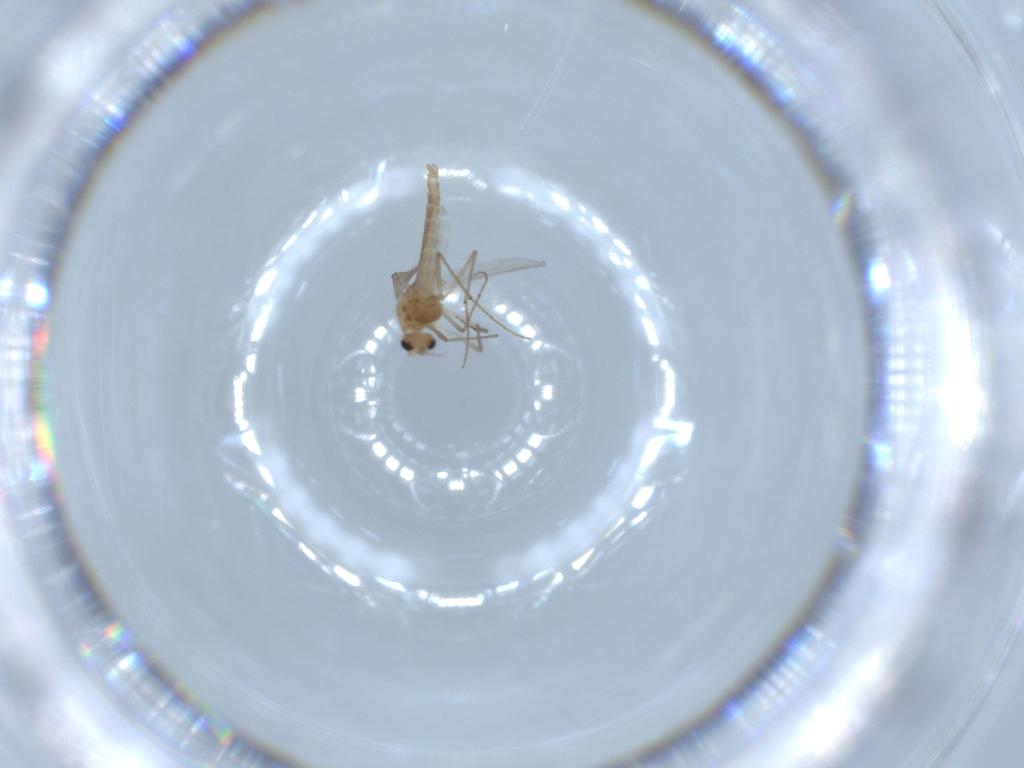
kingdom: Animalia
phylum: Arthropoda
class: Insecta
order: Diptera
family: Chironomidae
